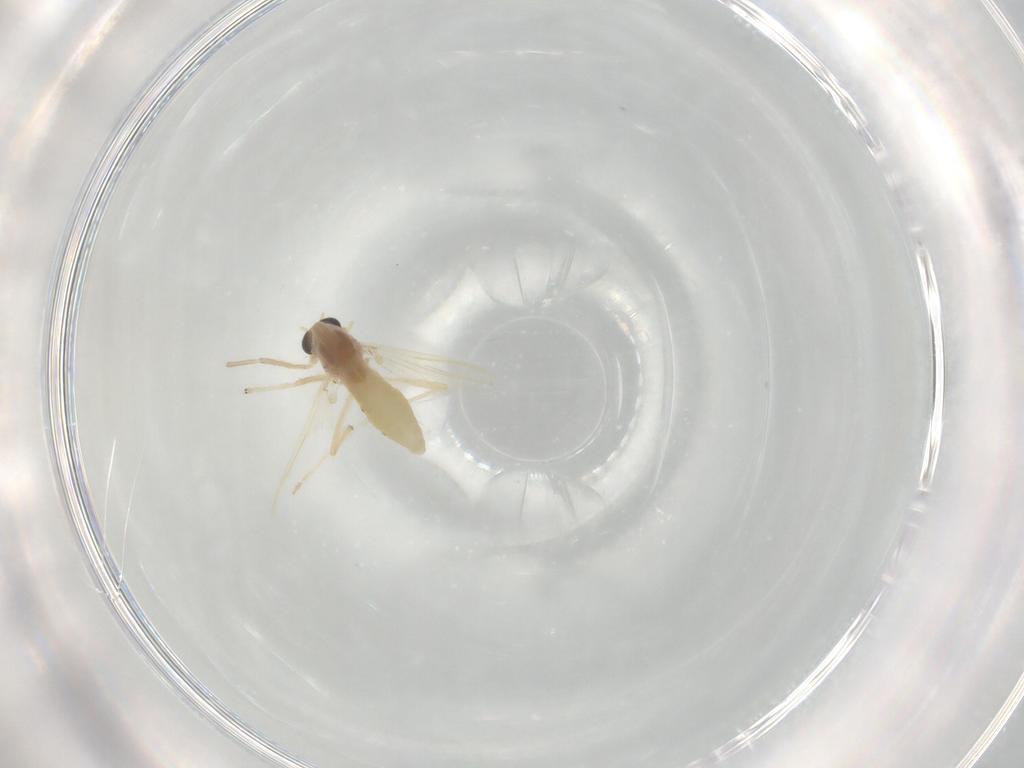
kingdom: Animalia
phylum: Arthropoda
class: Insecta
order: Diptera
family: Chironomidae
